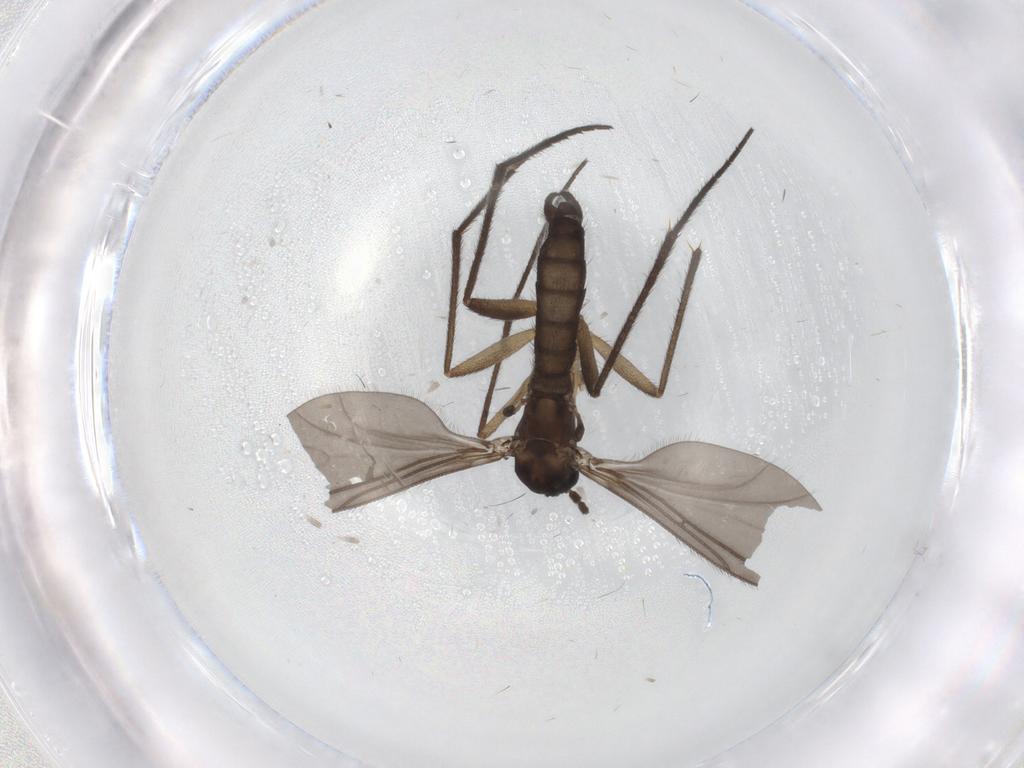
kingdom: Animalia
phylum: Arthropoda
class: Insecta
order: Diptera
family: Sciaridae
